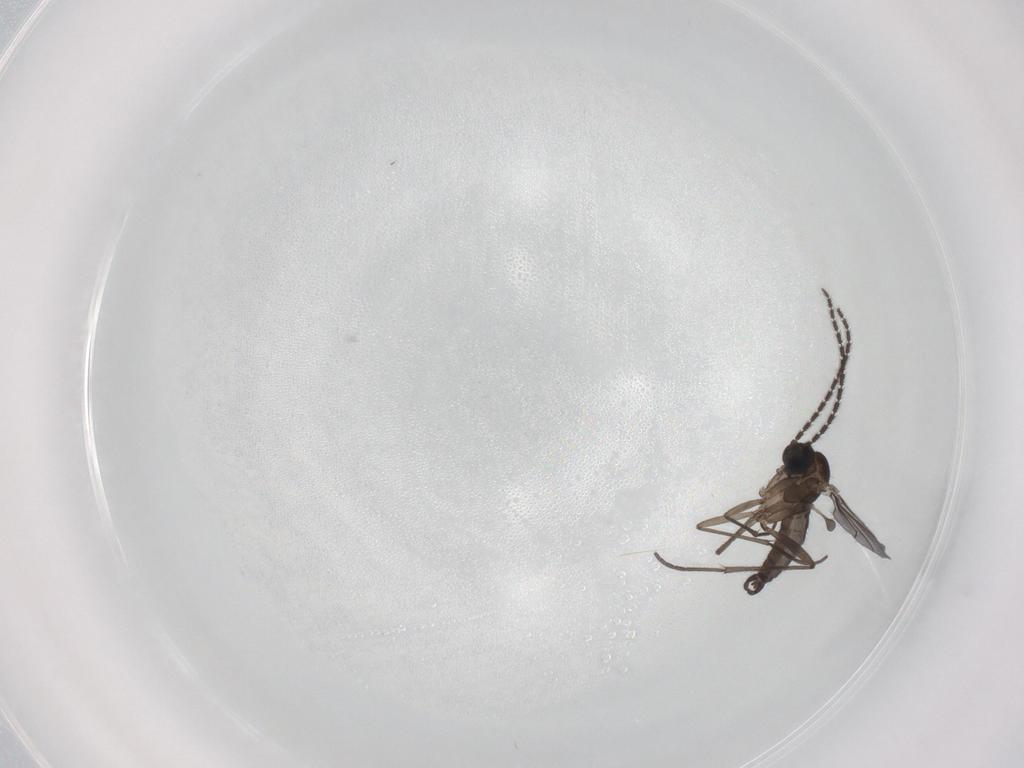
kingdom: Animalia
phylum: Arthropoda
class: Insecta
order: Diptera
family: Sciaridae
